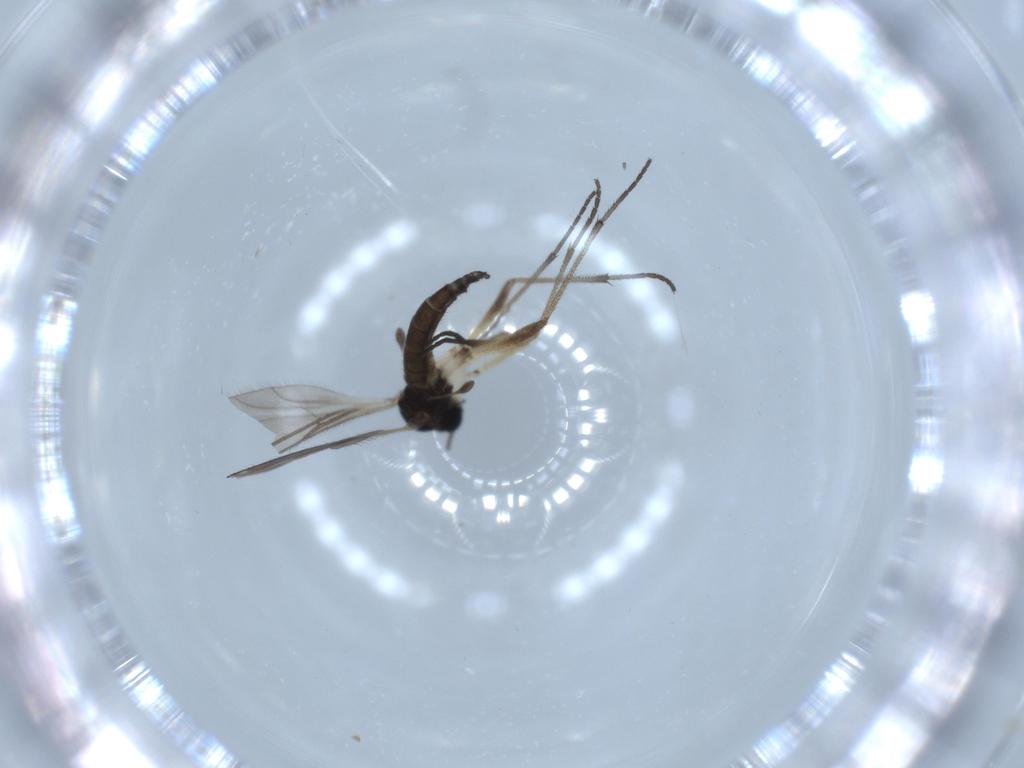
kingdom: Animalia
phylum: Arthropoda
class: Insecta
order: Diptera
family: Sciaridae
